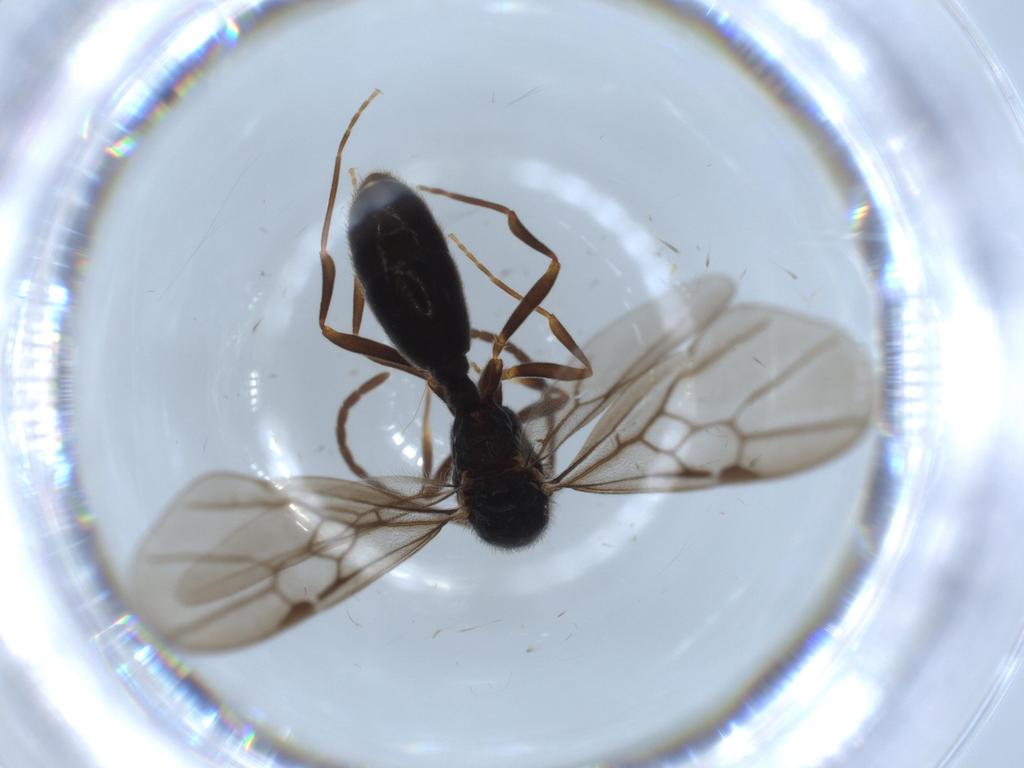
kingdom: Animalia
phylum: Arthropoda
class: Insecta
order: Hymenoptera
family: Formicidae
